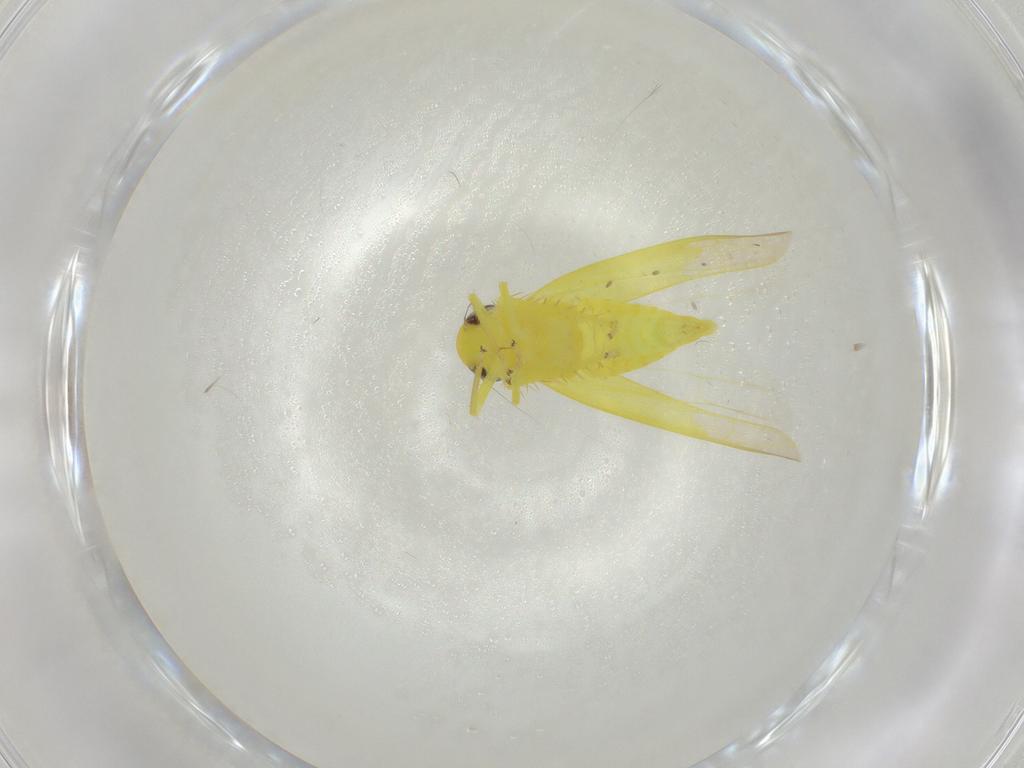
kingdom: Animalia
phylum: Arthropoda
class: Insecta
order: Hemiptera
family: Cicadellidae
